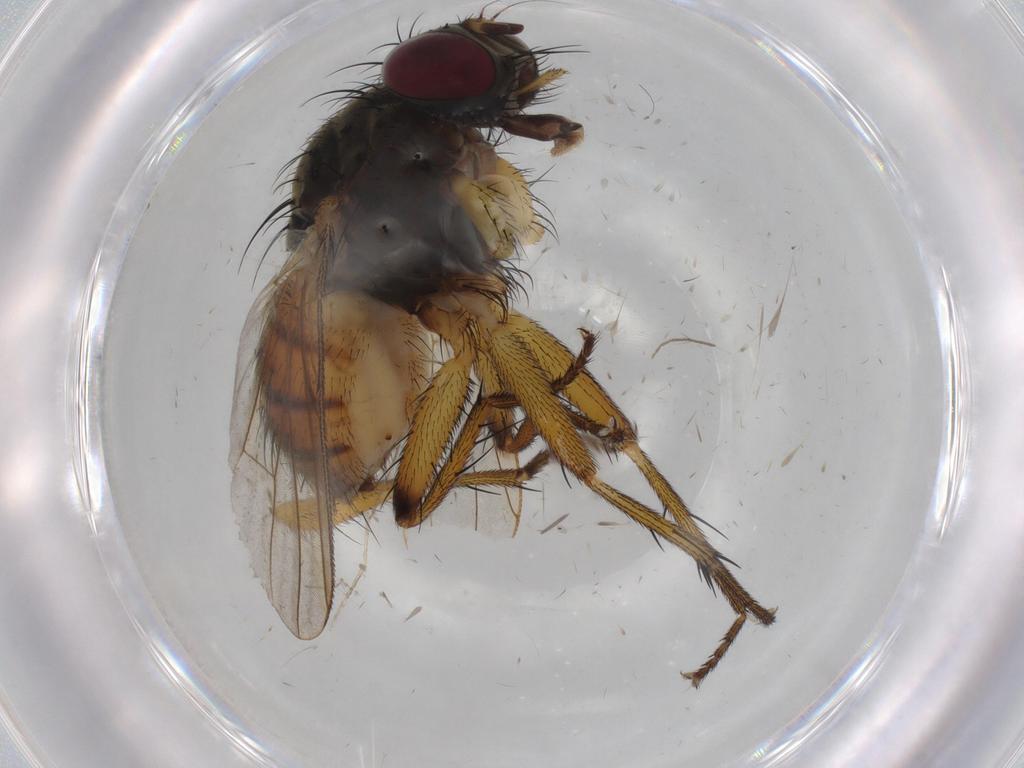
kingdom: Animalia
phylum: Arthropoda
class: Insecta
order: Diptera
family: Muscidae
